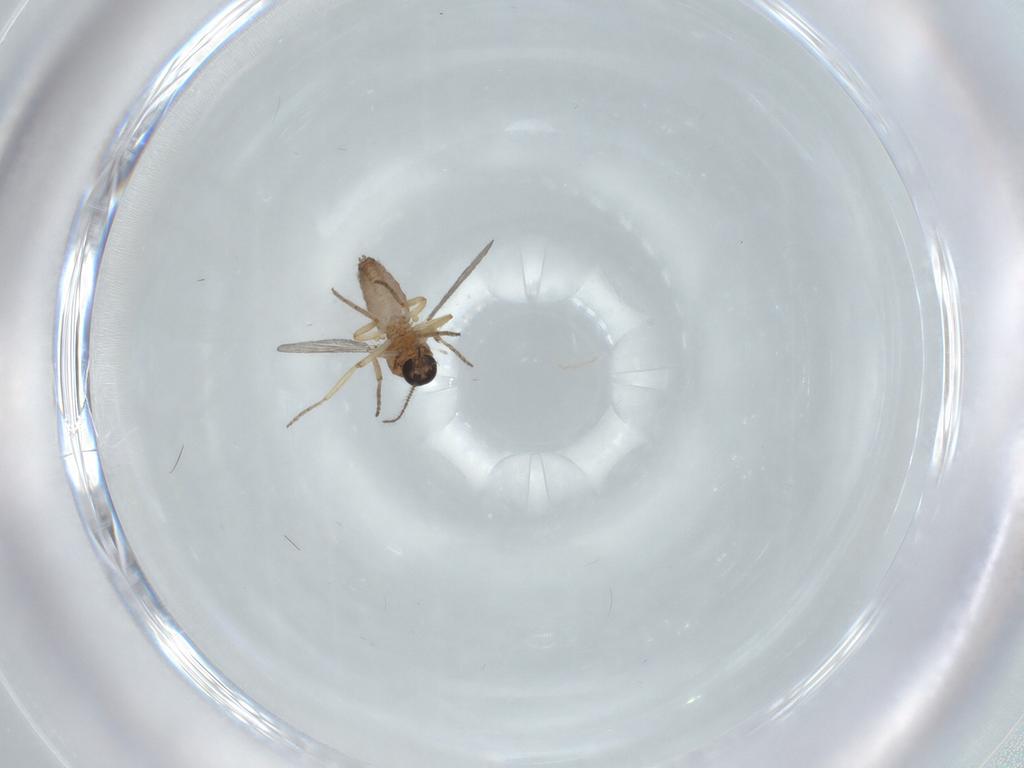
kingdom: Animalia
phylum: Arthropoda
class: Insecta
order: Diptera
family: Ceratopogonidae
